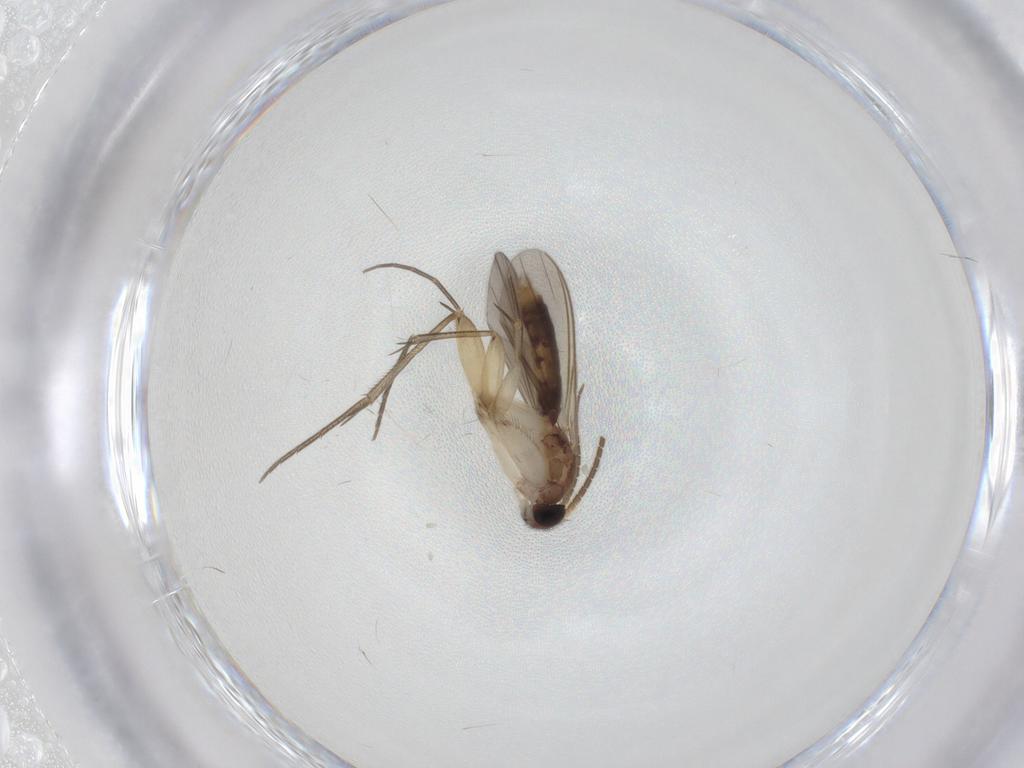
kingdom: Animalia
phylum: Arthropoda
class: Insecta
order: Diptera
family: Mycetophilidae
